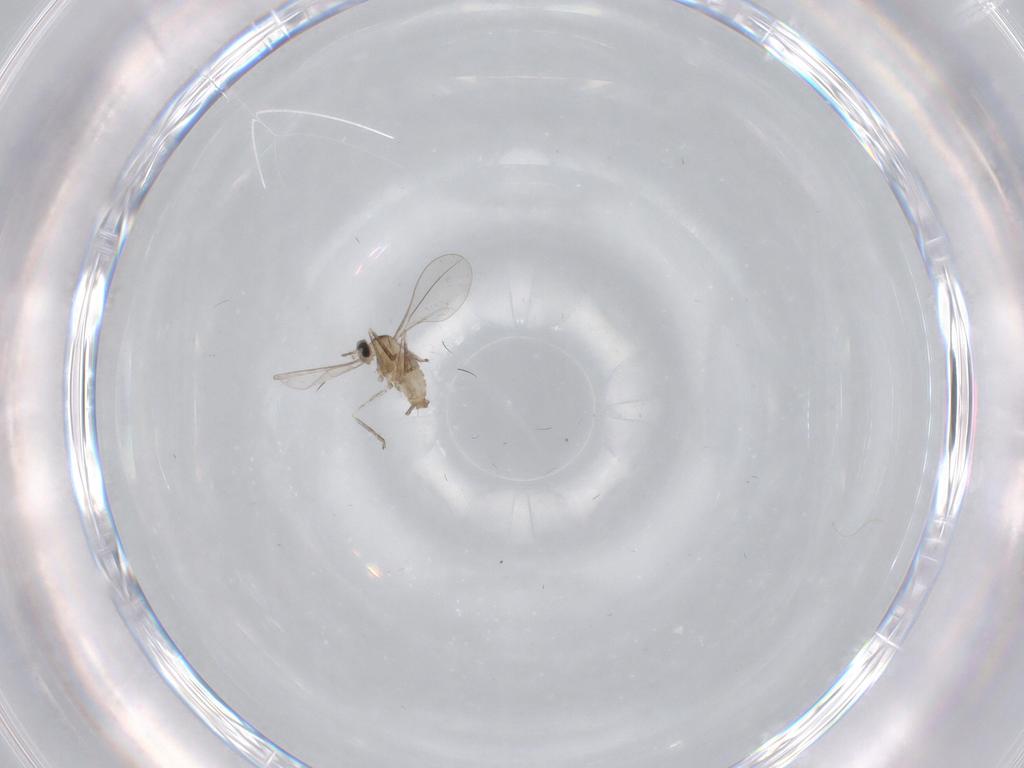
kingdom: Animalia
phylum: Arthropoda
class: Insecta
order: Diptera
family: Cecidomyiidae
